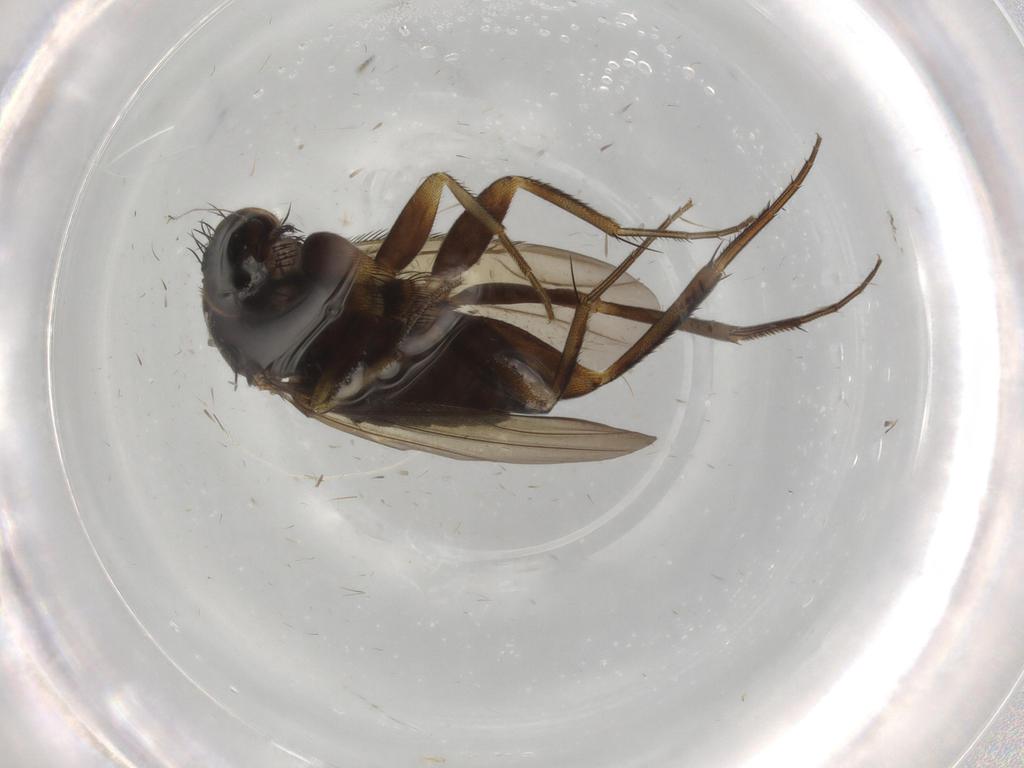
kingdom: Animalia
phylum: Arthropoda
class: Insecta
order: Diptera
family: Phoridae
